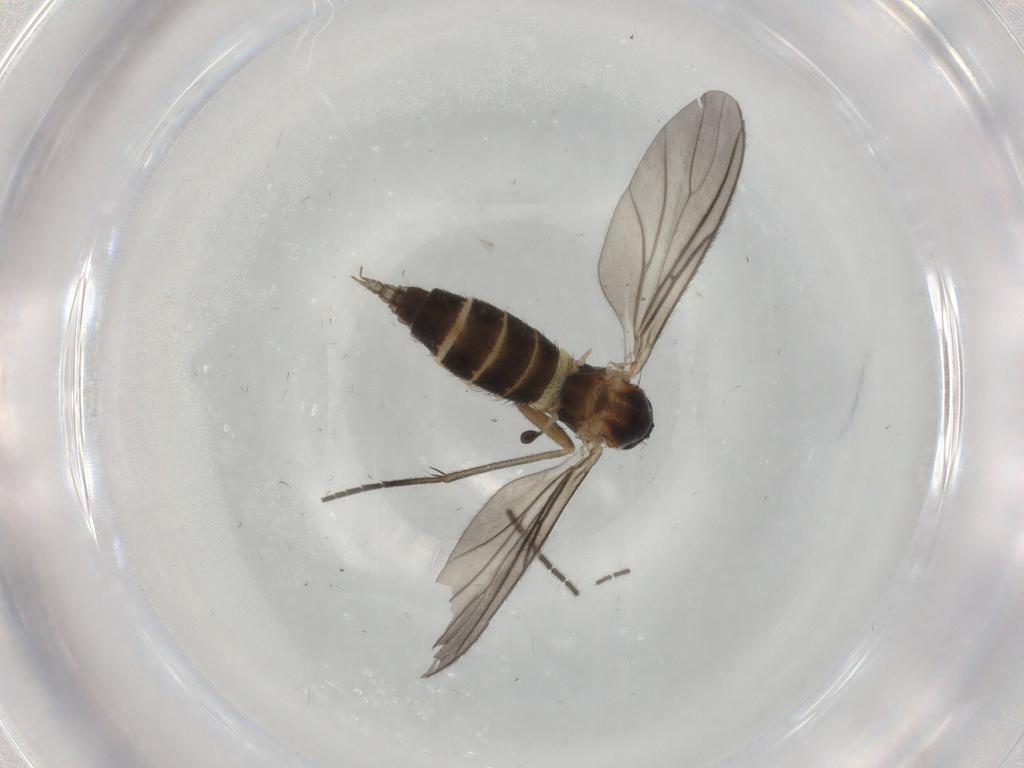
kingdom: Animalia
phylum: Arthropoda
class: Insecta
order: Diptera
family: Sciaridae
